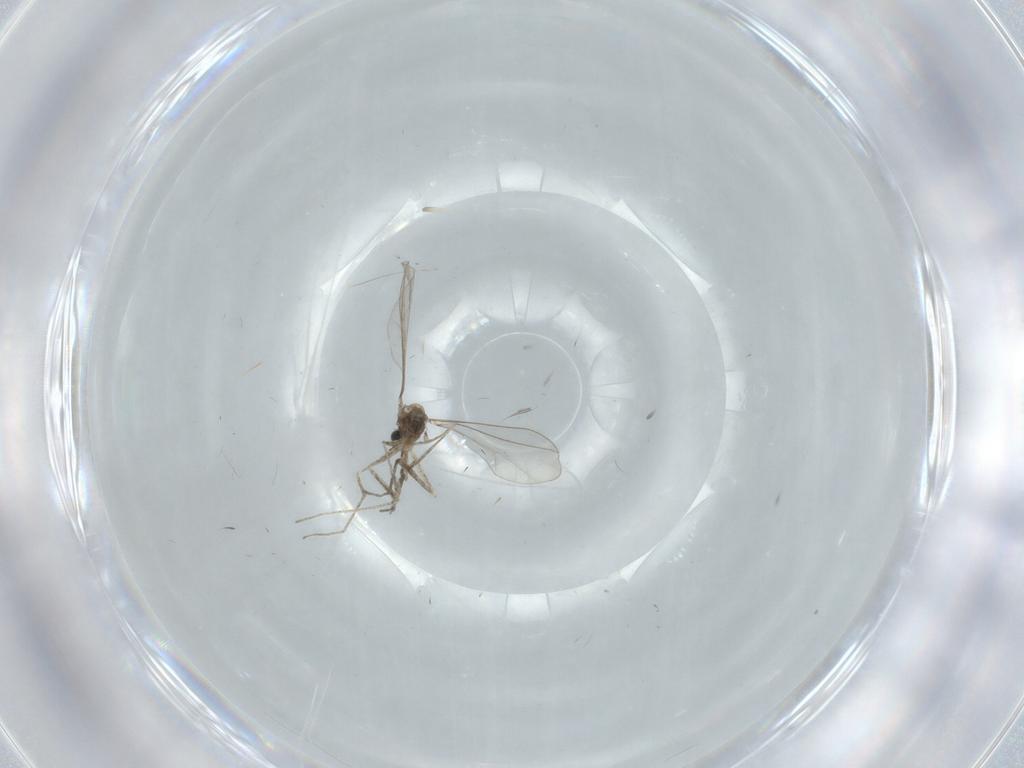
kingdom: Animalia
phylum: Arthropoda
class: Insecta
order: Diptera
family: Cecidomyiidae
